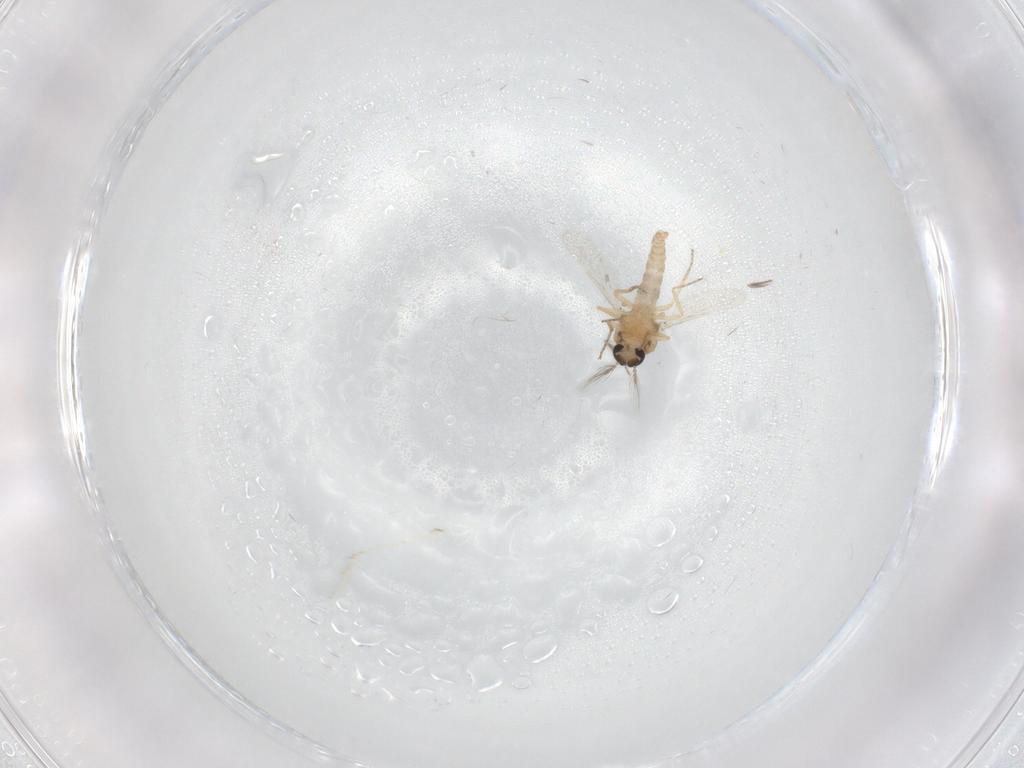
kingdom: Animalia
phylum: Arthropoda
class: Insecta
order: Diptera
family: Ceratopogonidae
